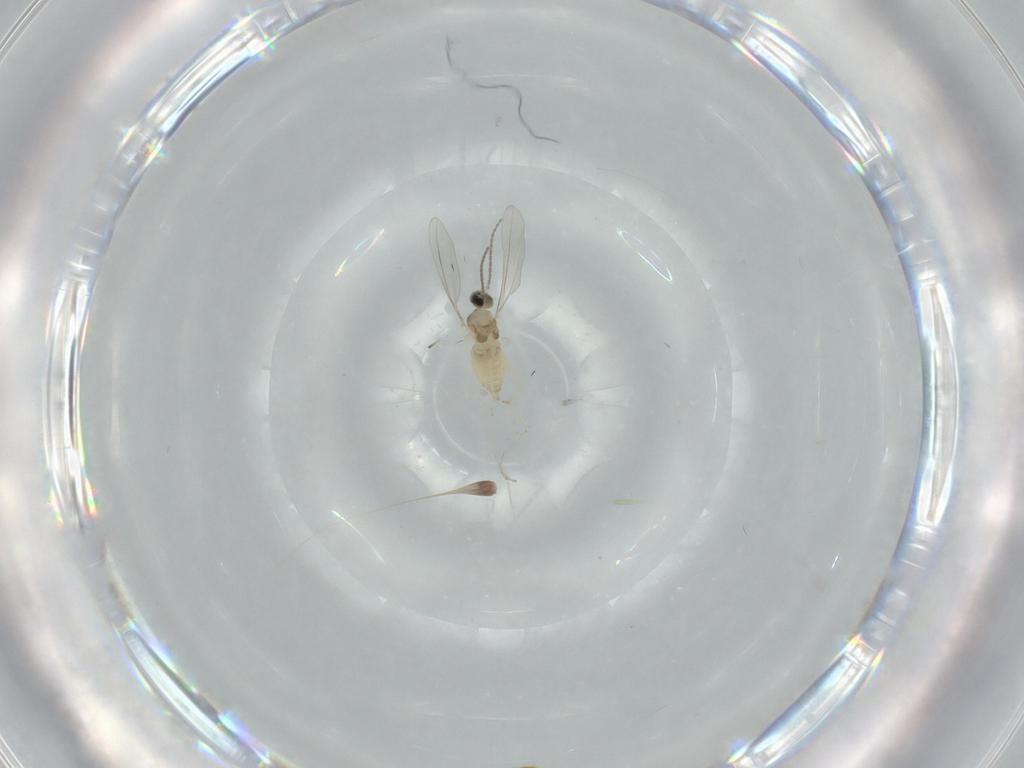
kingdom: Animalia
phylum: Arthropoda
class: Insecta
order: Diptera
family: Cecidomyiidae
